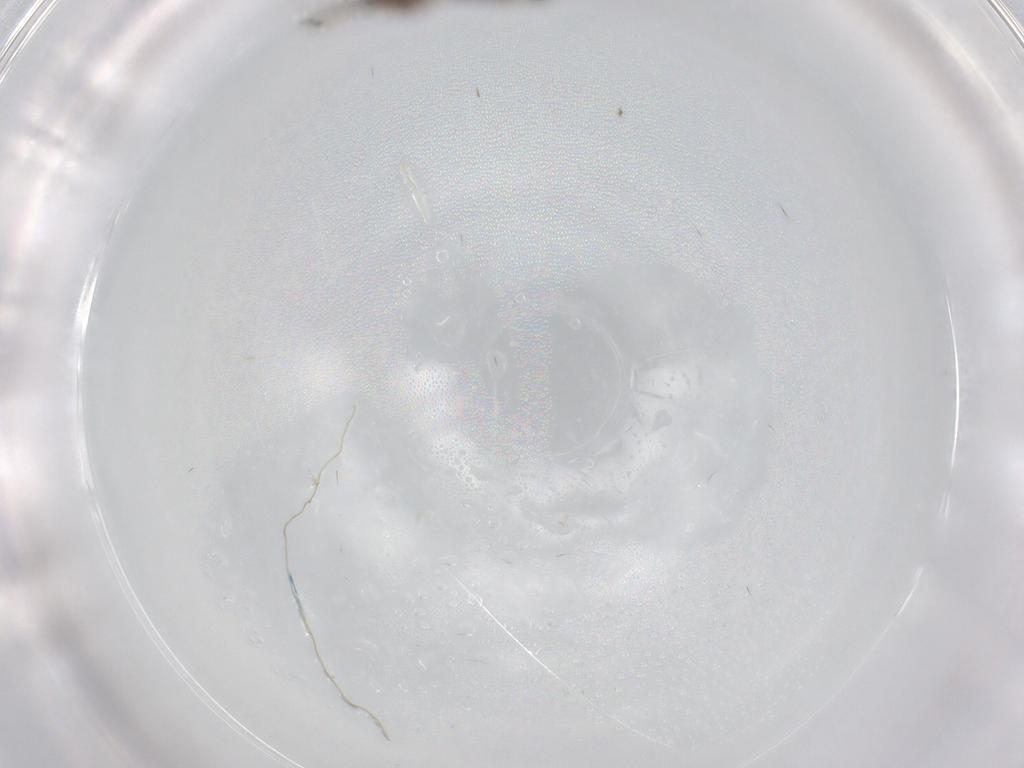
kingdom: Animalia
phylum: Arthropoda
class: Insecta
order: Diptera
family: Sciaridae
